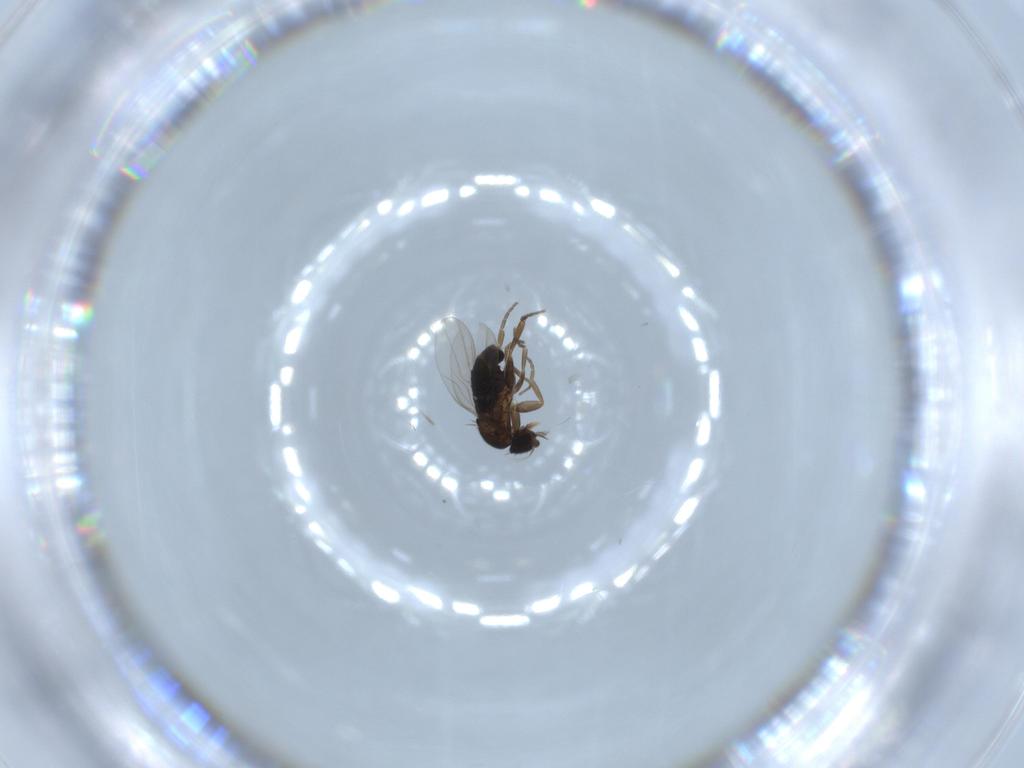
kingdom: Animalia
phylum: Arthropoda
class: Insecta
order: Diptera
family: Phoridae
